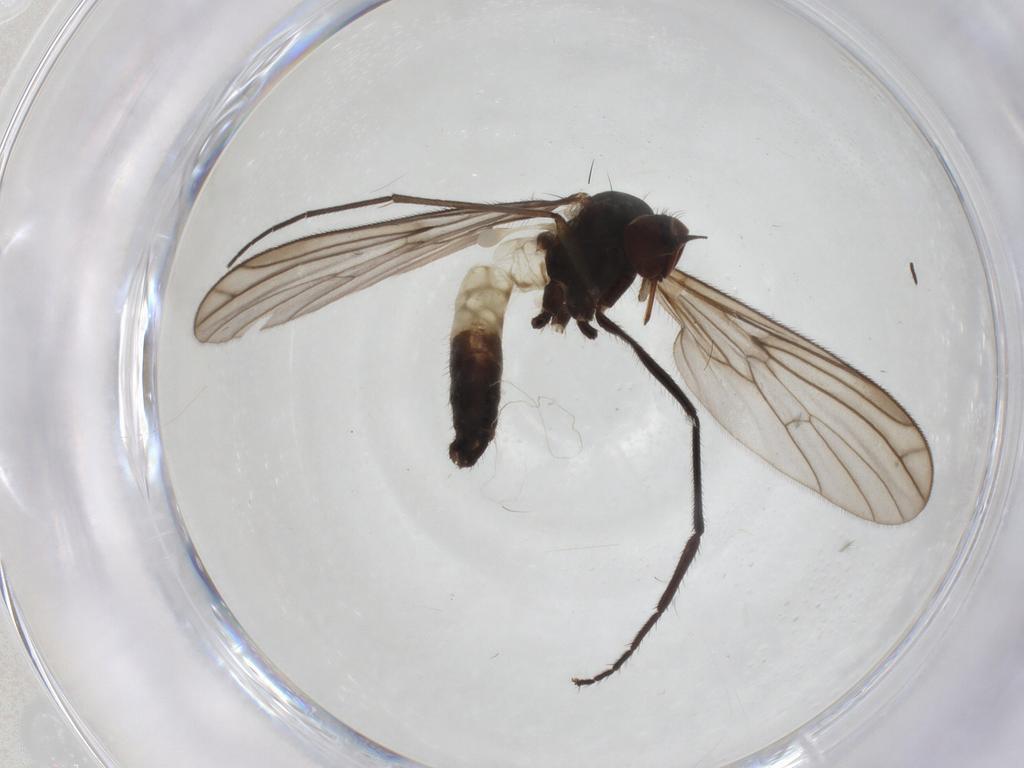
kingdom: Animalia
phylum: Arthropoda
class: Insecta
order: Diptera
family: Empididae
